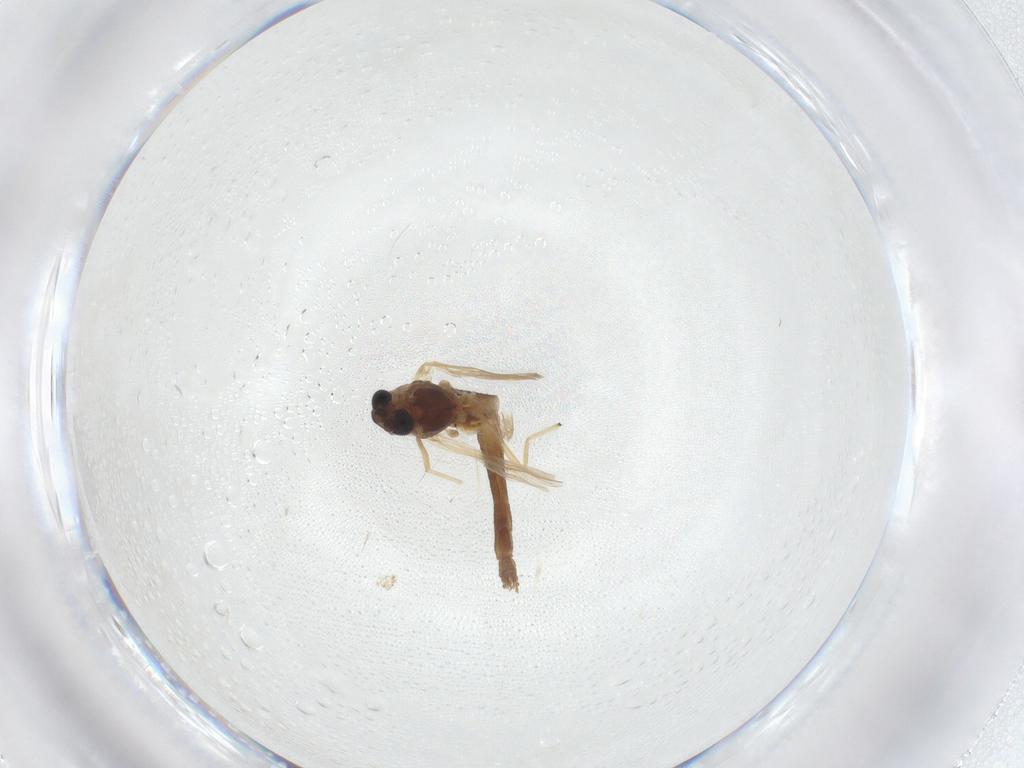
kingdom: Animalia
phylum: Arthropoda
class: Insecta
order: Diptera
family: Chironomidae
